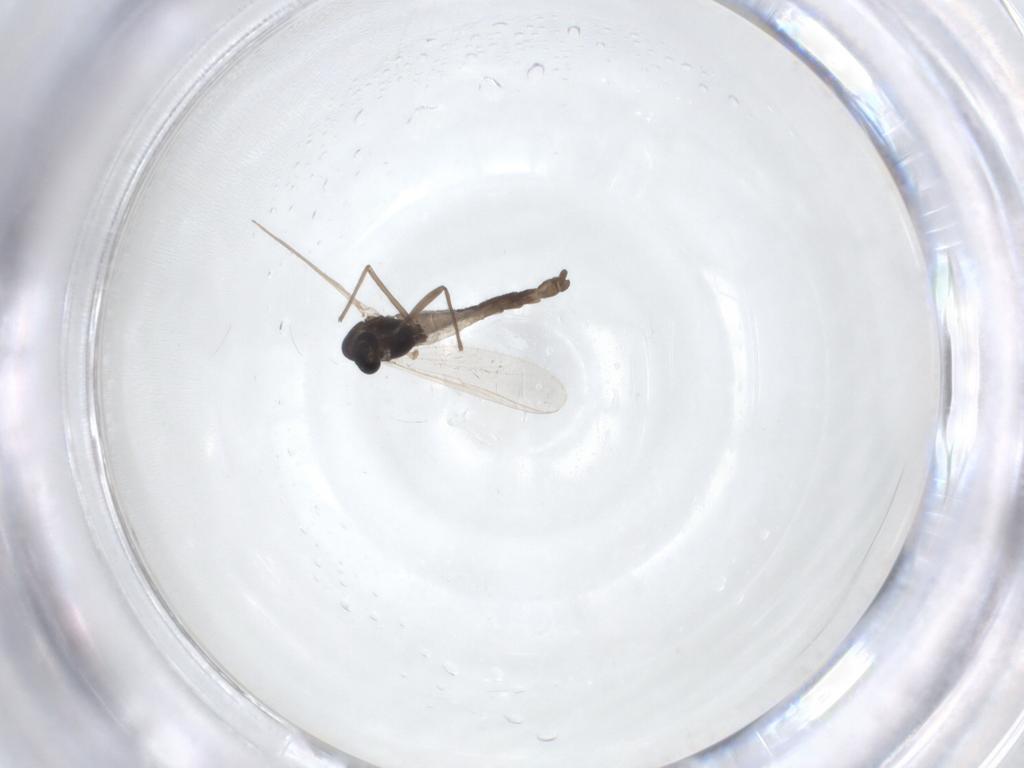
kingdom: Animalia
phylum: Arthropoda
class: Insecta
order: Diptera
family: Chironomidae
